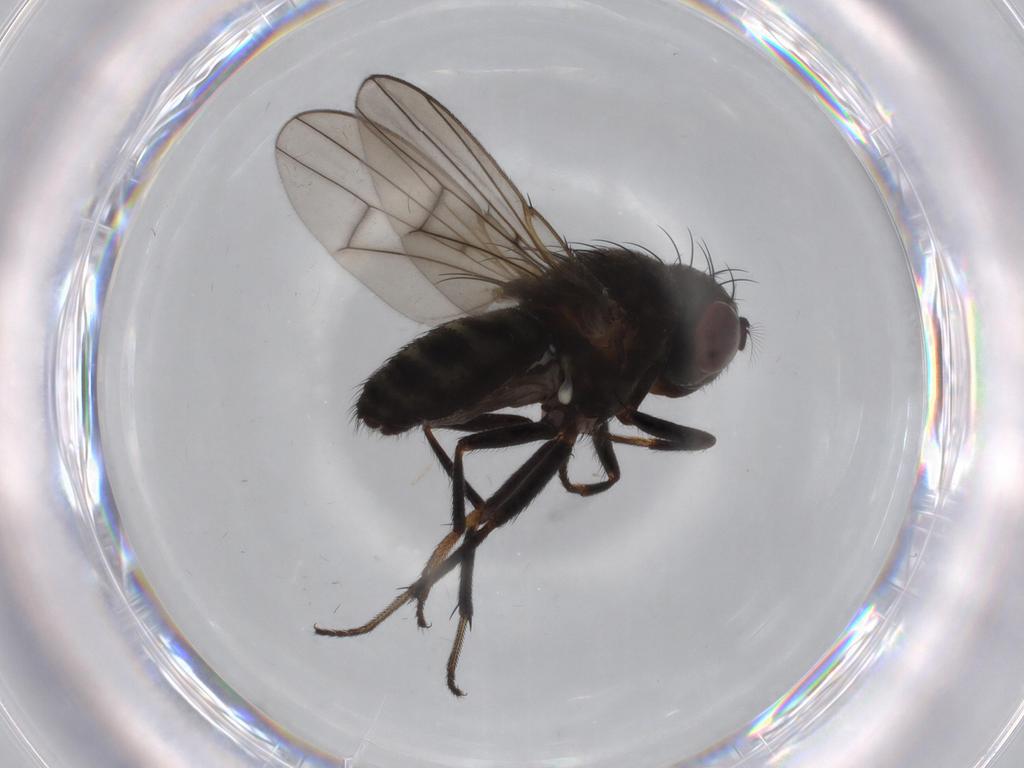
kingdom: Animalia
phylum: Arthropoda
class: Insecta
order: Diptera
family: Ephydridae
